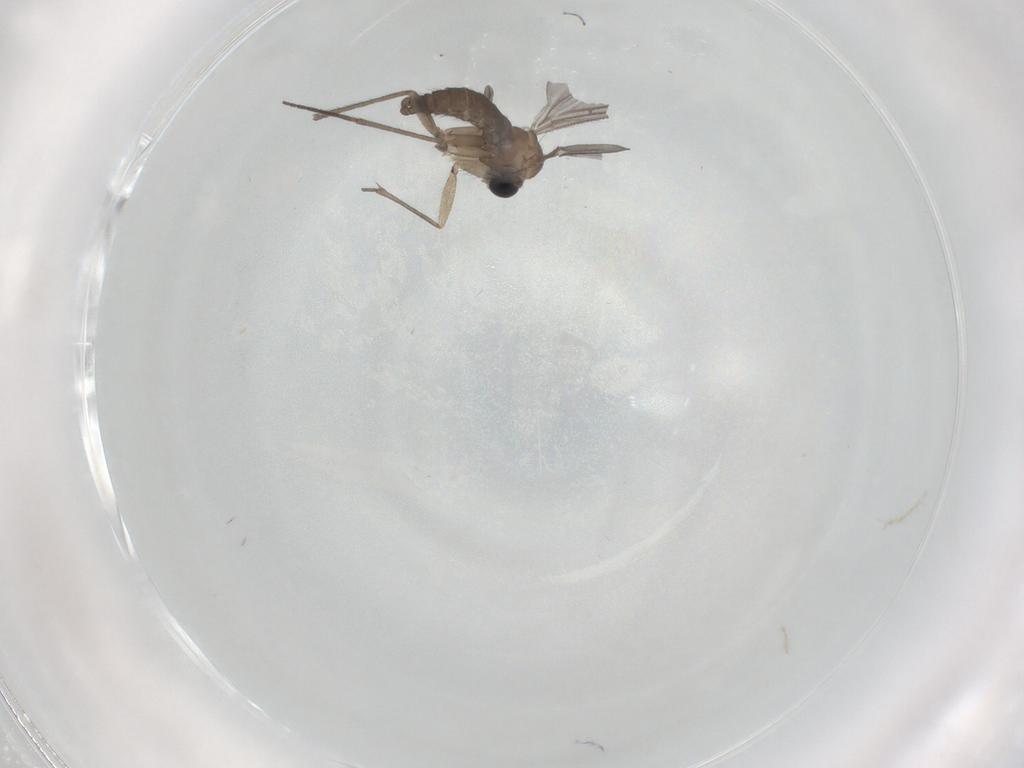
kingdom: Animalia
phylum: Arthropoda
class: Insecta
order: Diptera
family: Sciaridae
